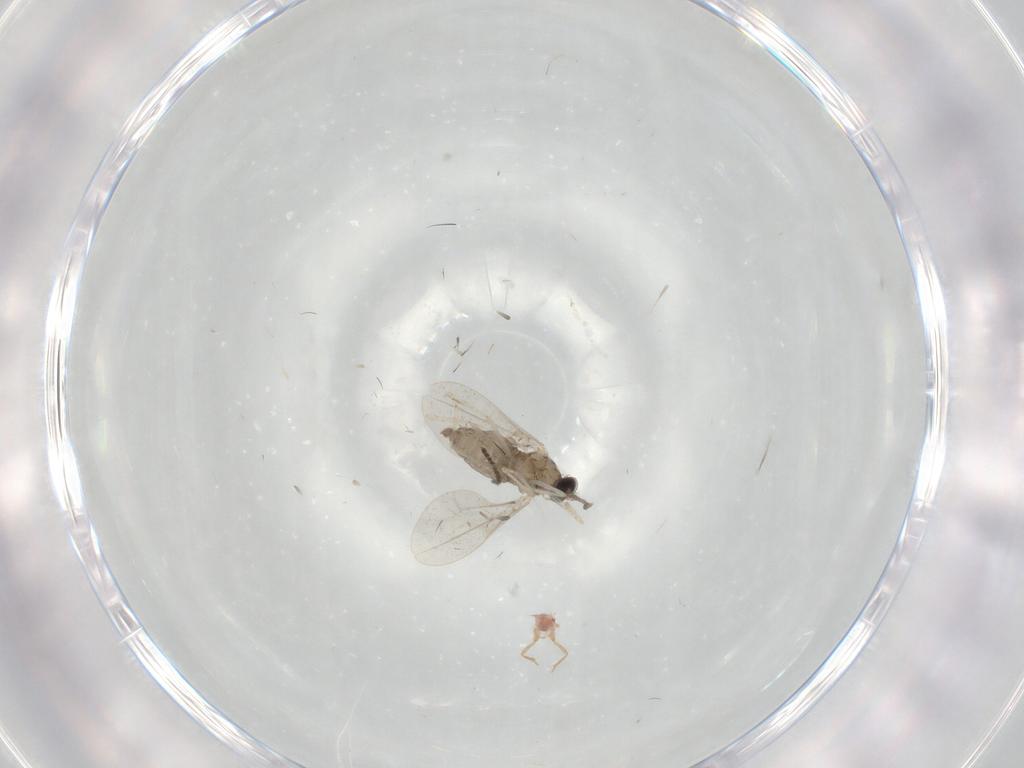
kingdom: Animalia
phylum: Arthropoda
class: Insecta
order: Diptera
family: Sciaridae
